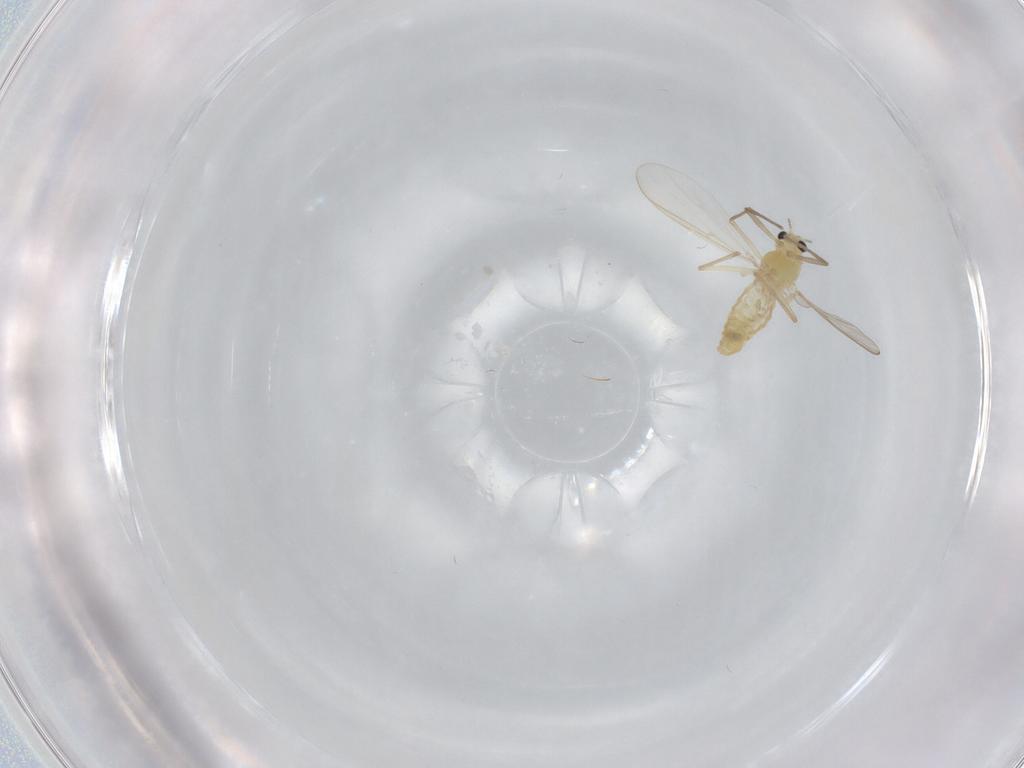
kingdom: Animalia
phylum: Arthropoda
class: Insecta
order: Diptera
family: Chironomidae
